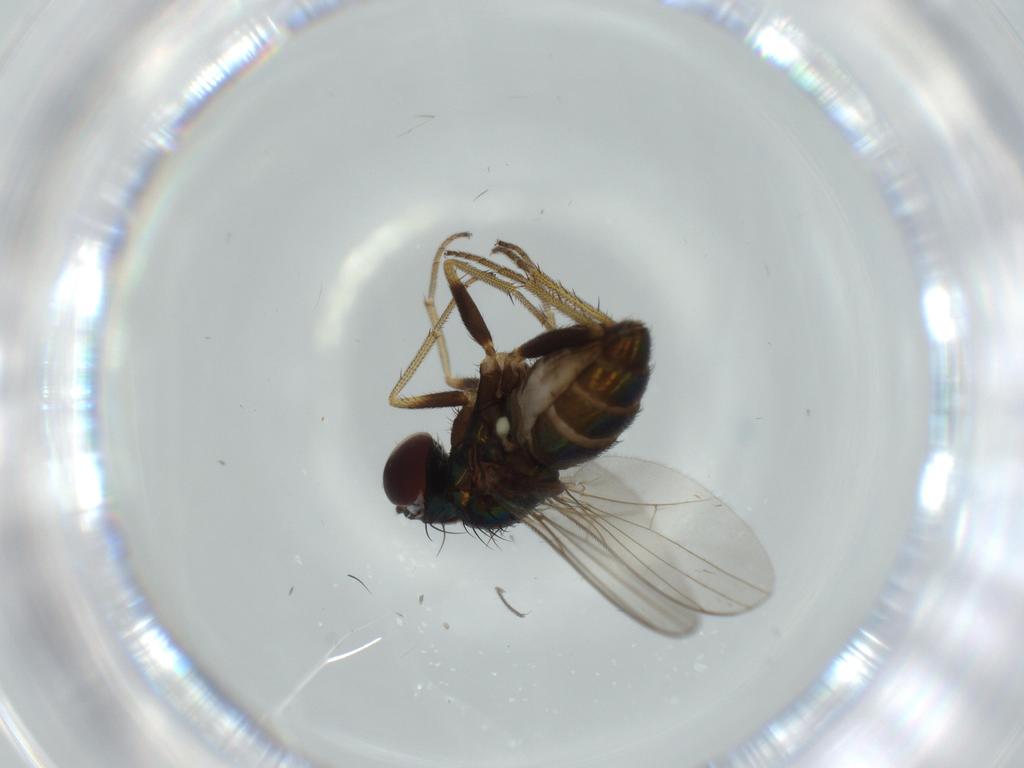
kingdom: Animalia
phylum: Arthropoda
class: Insecta
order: Diptera
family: Dolichopodidae
